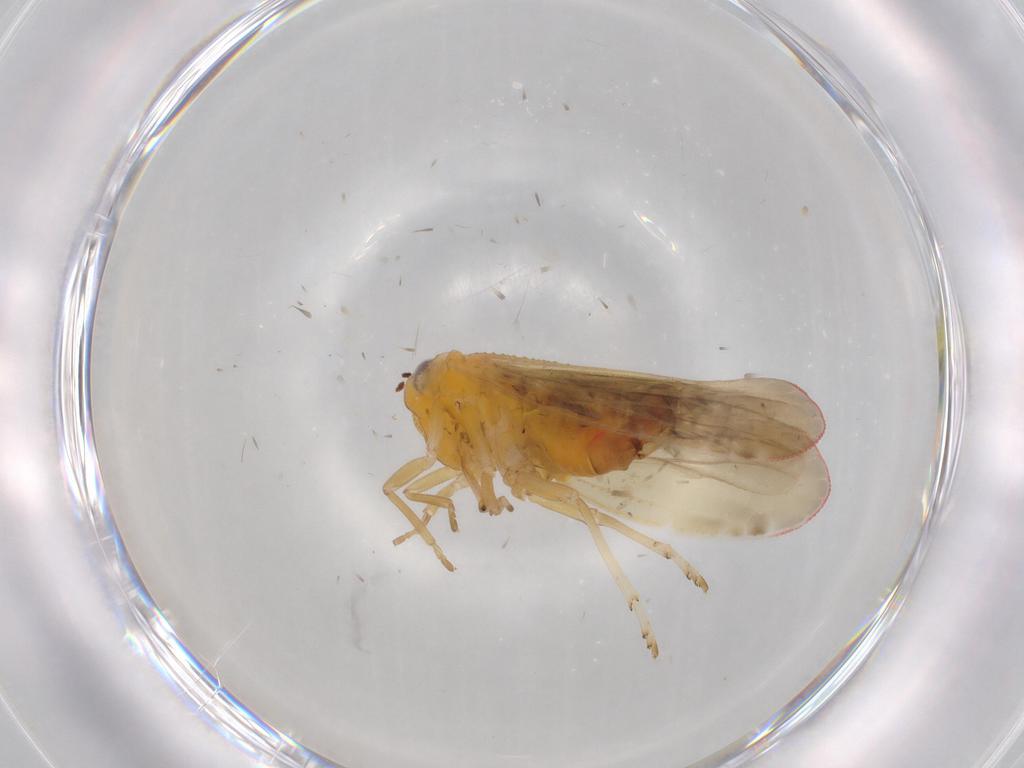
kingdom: Animalia
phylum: Arthropoda
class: Insecta
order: Hemiptera
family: Derbidae
